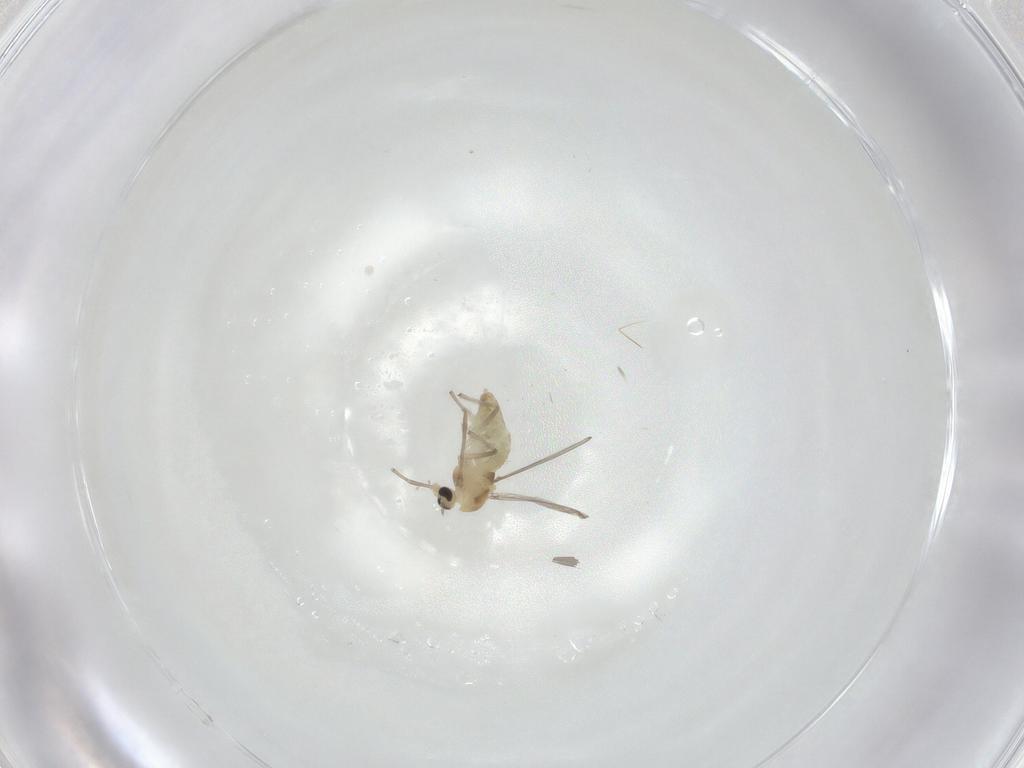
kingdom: Animalia
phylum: Arthropoda
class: Insecta
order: Diptera
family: Chironomidae
